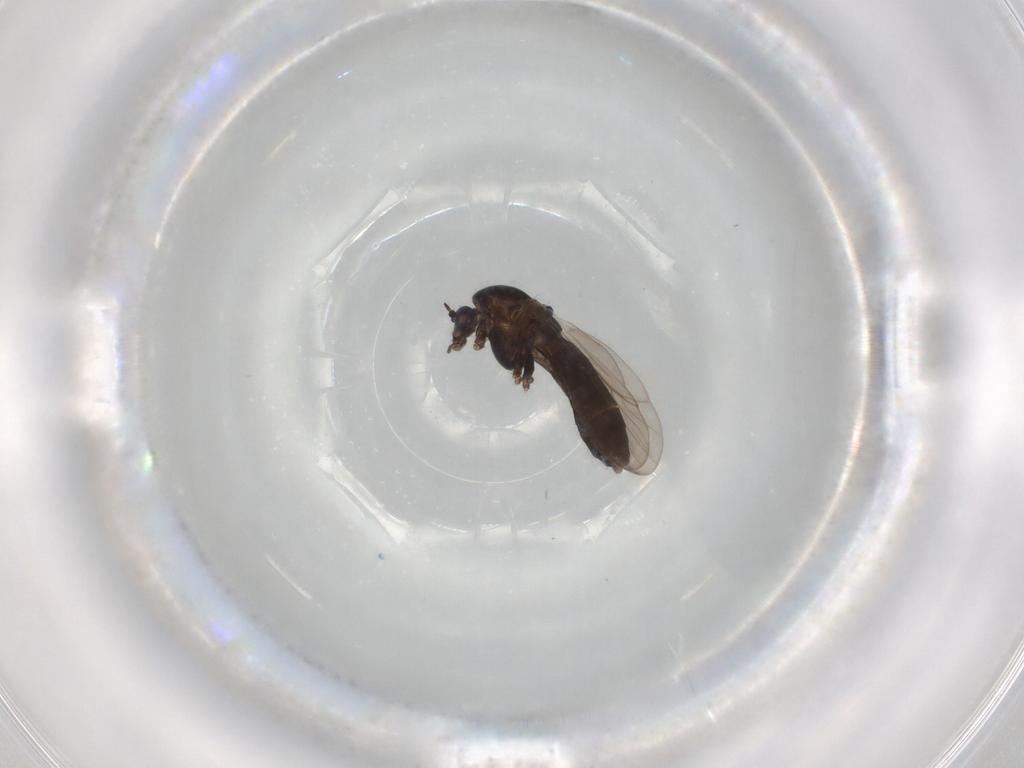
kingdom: Animalia
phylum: Arthropoda
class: Insecta
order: Diptera
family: Chironomidae
